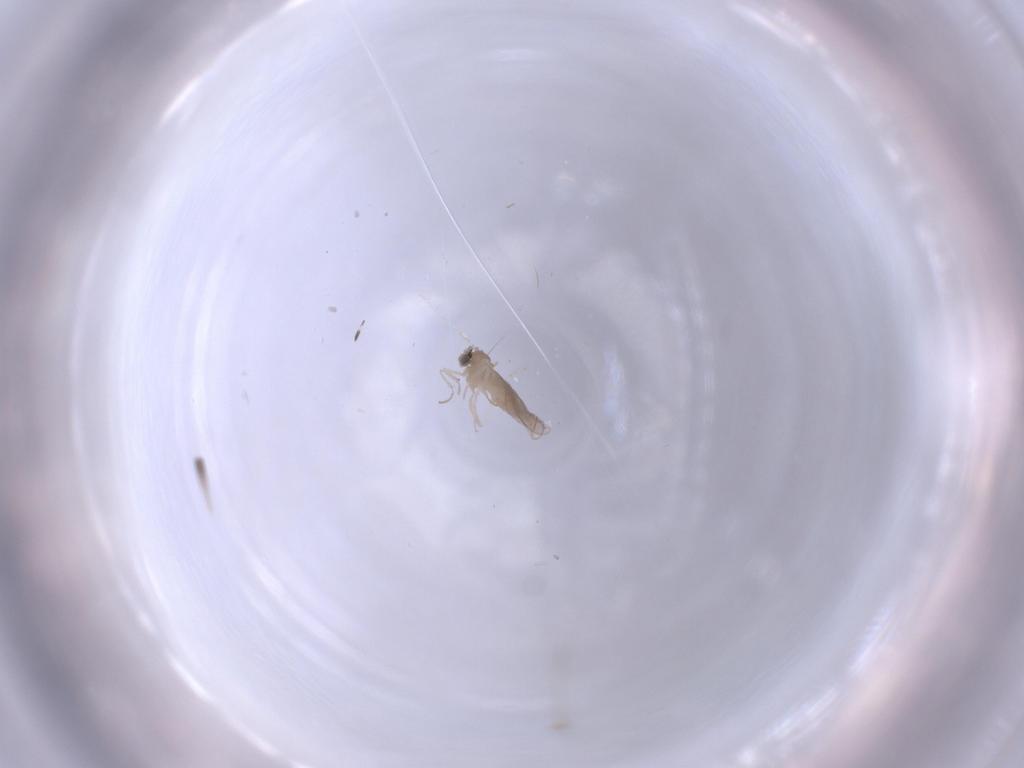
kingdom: Animalia
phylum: Arthropoda
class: Insecta
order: Diptera
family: Cecidomyiidae
